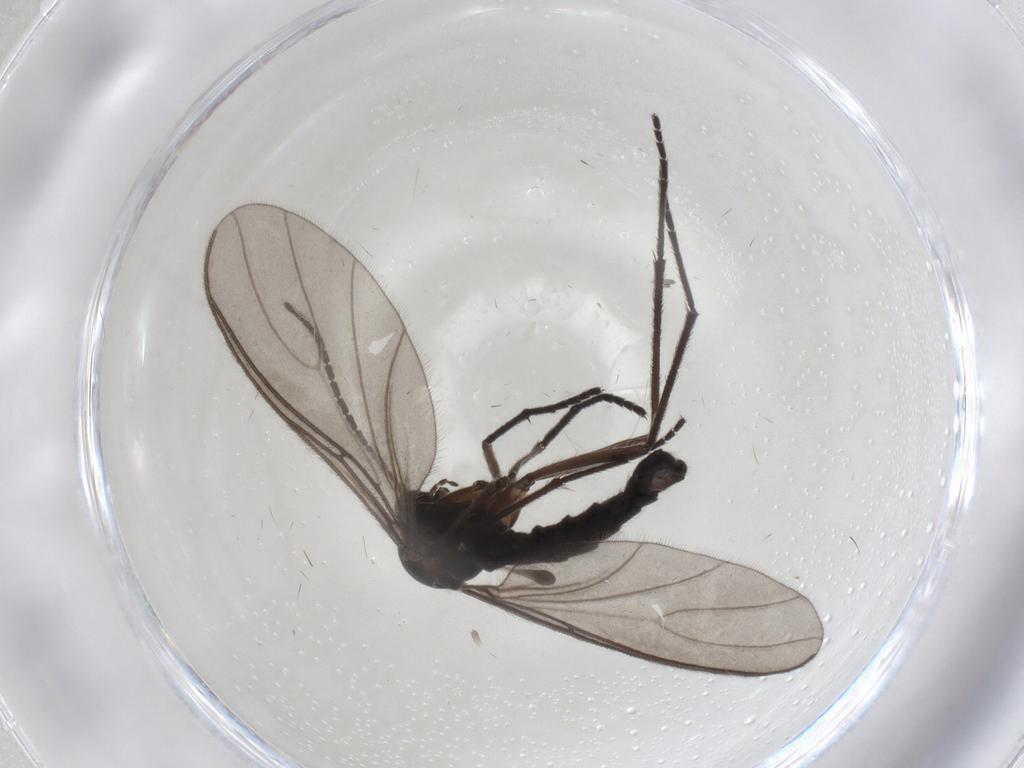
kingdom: Animalia
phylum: Arthropoda
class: Insecta
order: Diptera
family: Sciaridae
